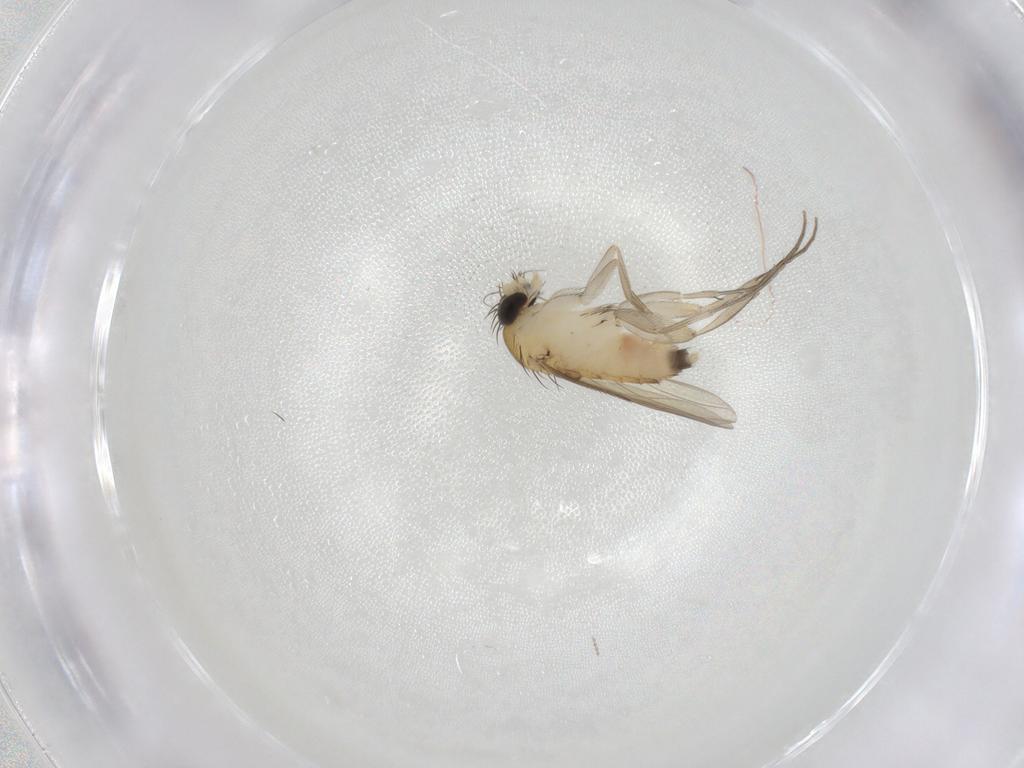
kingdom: Animalia
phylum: Arthropoda
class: Insecta
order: Diptera
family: Phoridae
